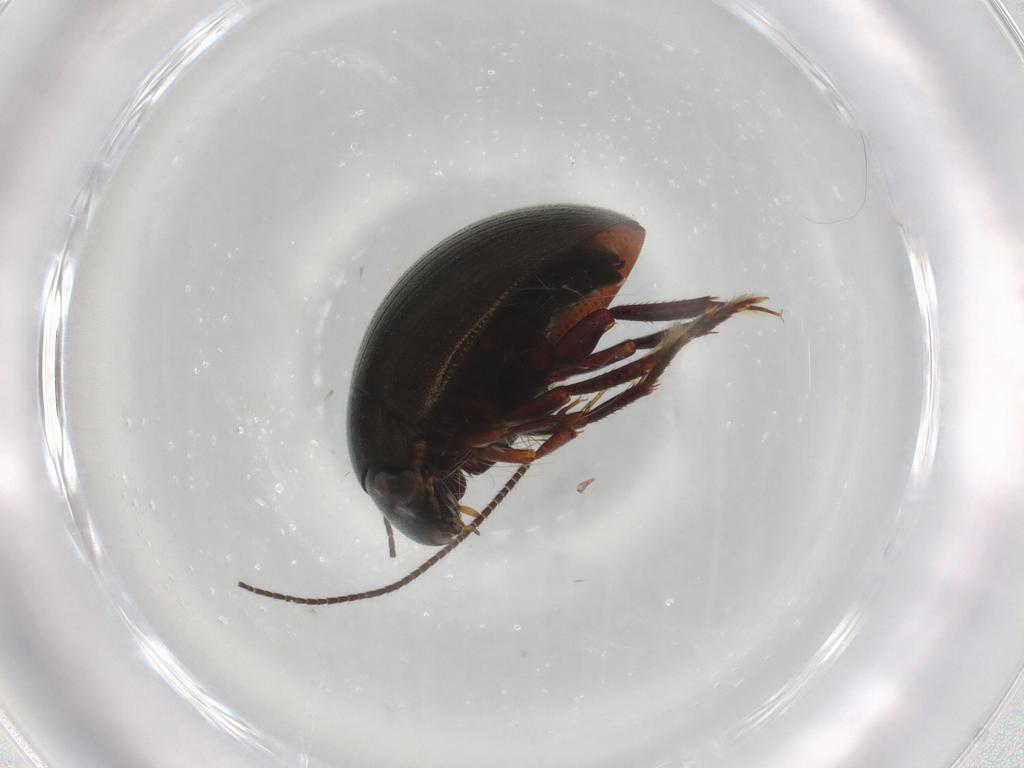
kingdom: Animalia
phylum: Arthropoda
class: Insecta
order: Coleoptera
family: Hydrophilidae
